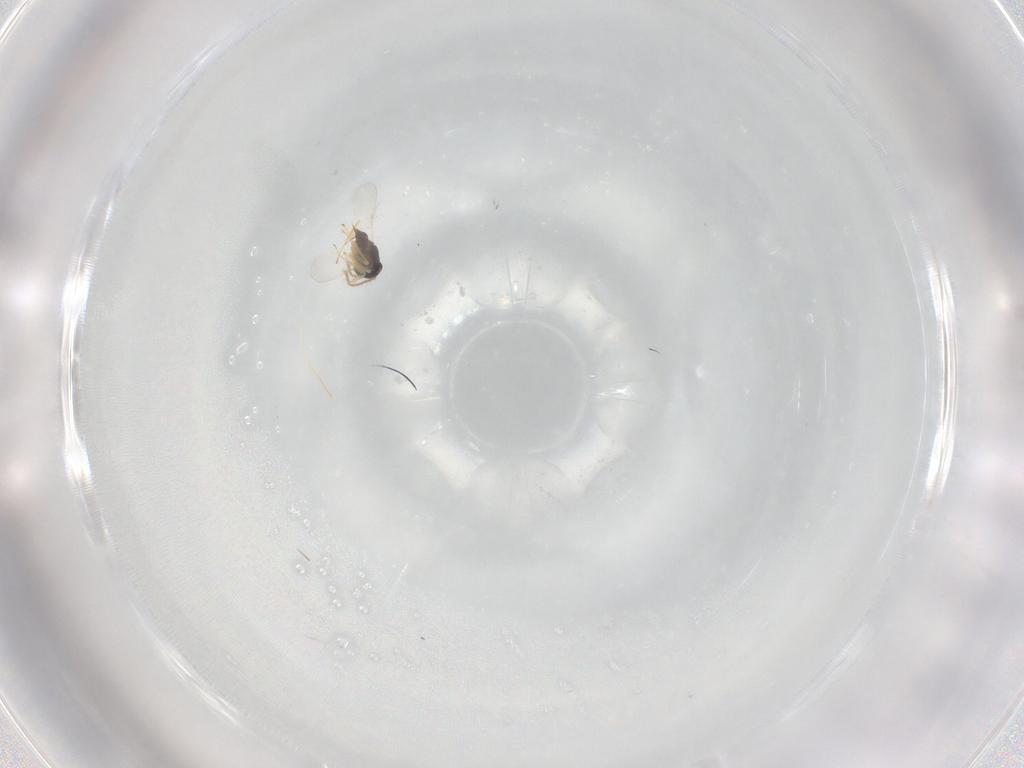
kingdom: Animalia
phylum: Arthropoda
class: Insecta
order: Hymenoptera
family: Encyrtidae
